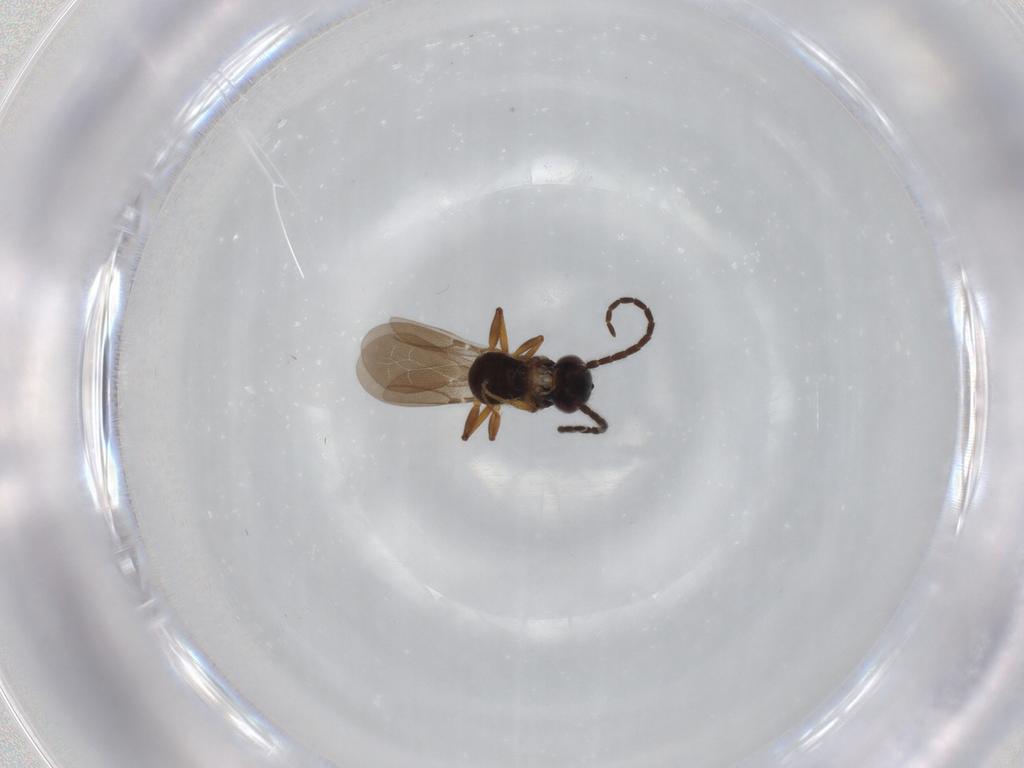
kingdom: Animalia
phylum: Arthropoda
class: Insecta
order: Hymenoptera
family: Bethylidae
